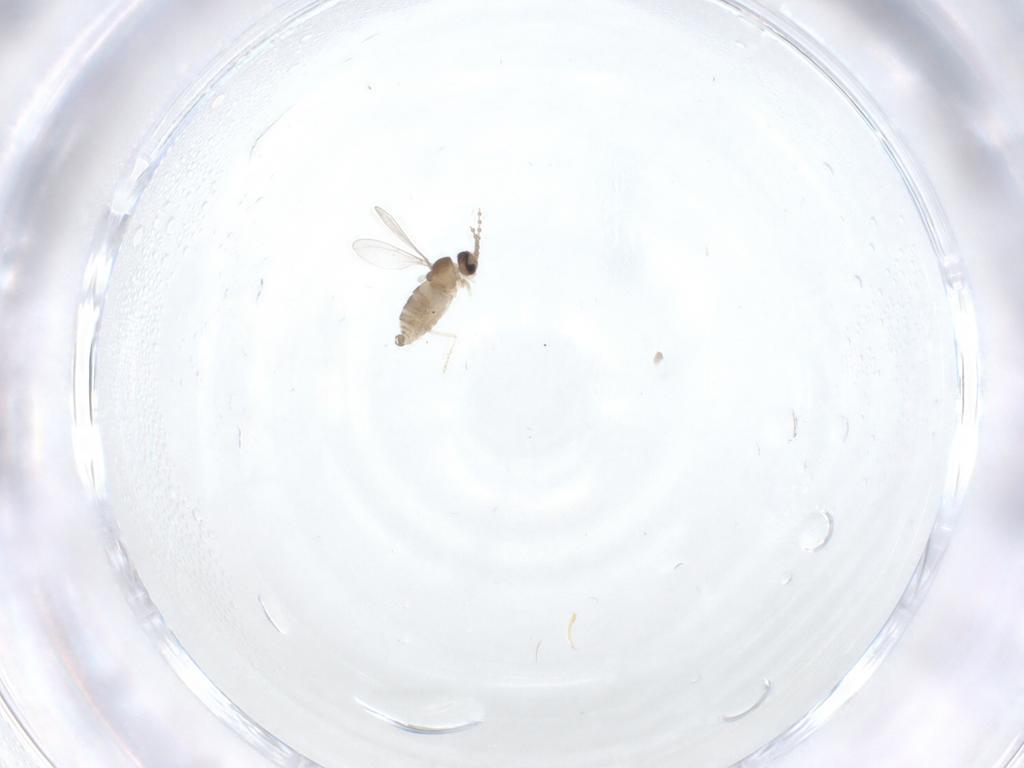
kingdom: Animalia
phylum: Arthropoda
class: Insecta
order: Diptera
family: Cecidomyiidae
